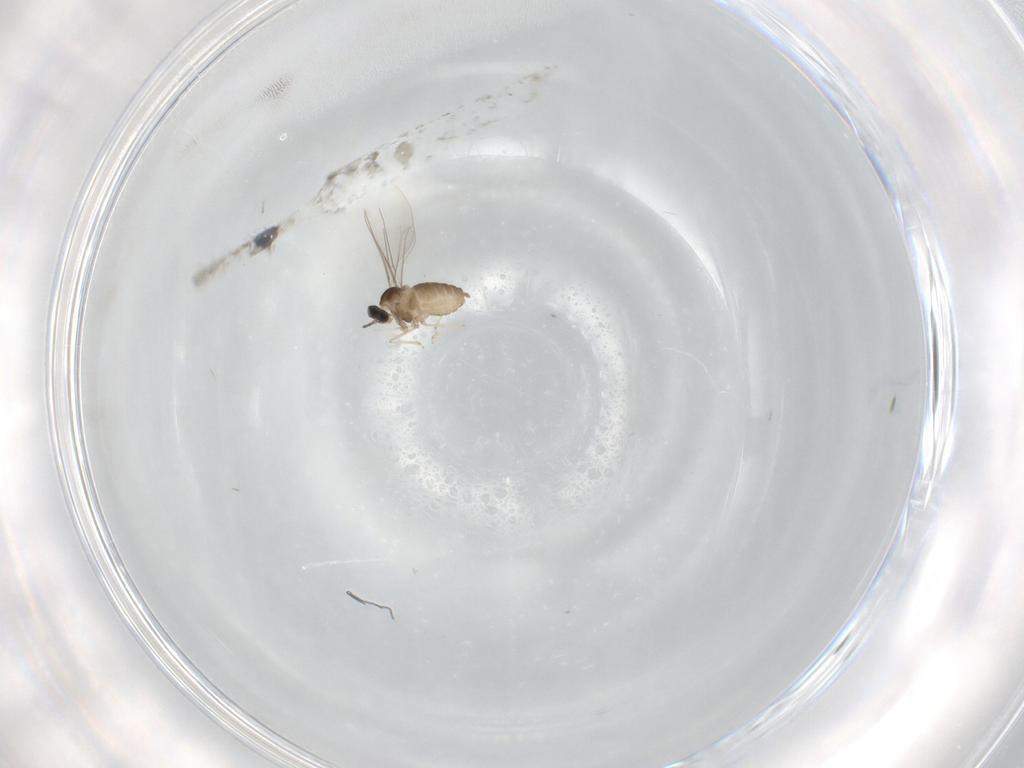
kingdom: Animalia
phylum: Arthropoda
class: Insecta
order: Diptera
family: Cecidomyiidae
